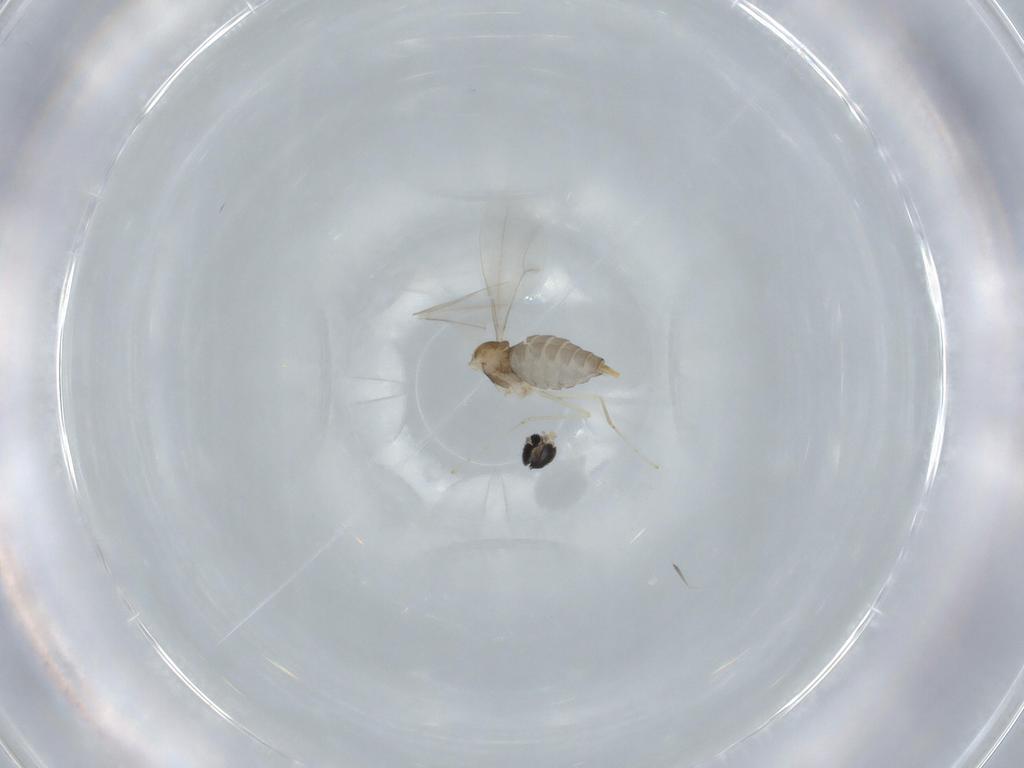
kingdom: Animalia
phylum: Arthropoda
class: Insecta
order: Diptera
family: Cecidomyiidae
